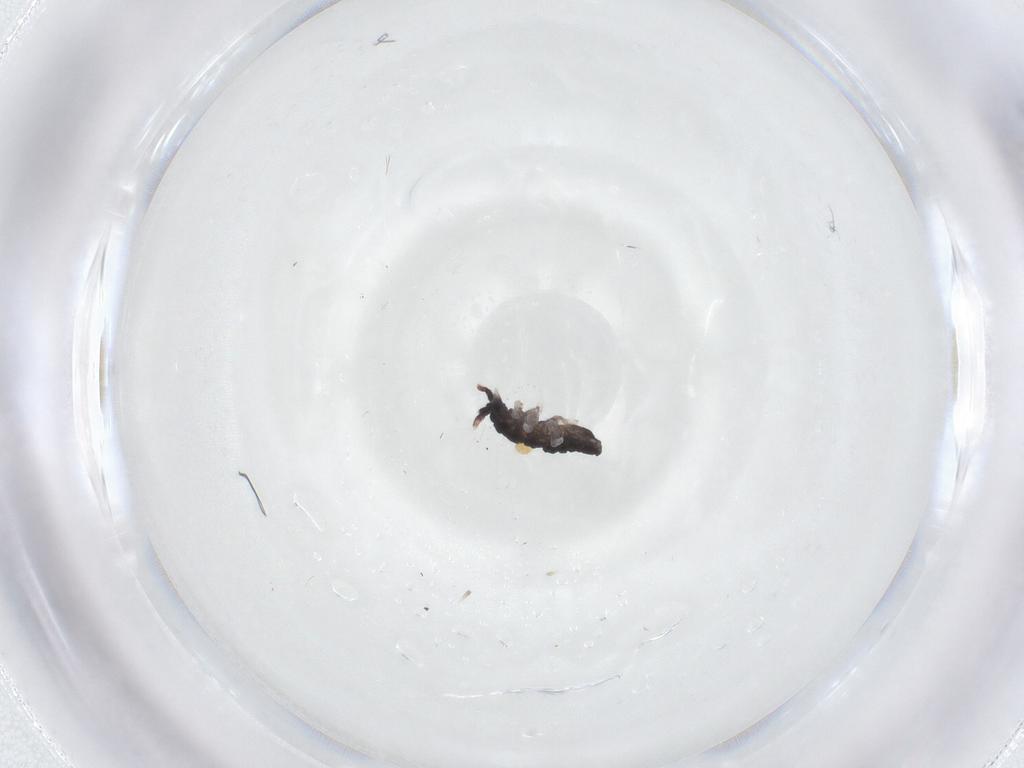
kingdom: Animalia
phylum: Arthropoda
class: Collembola
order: Poduromorpha
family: Neanuridae
